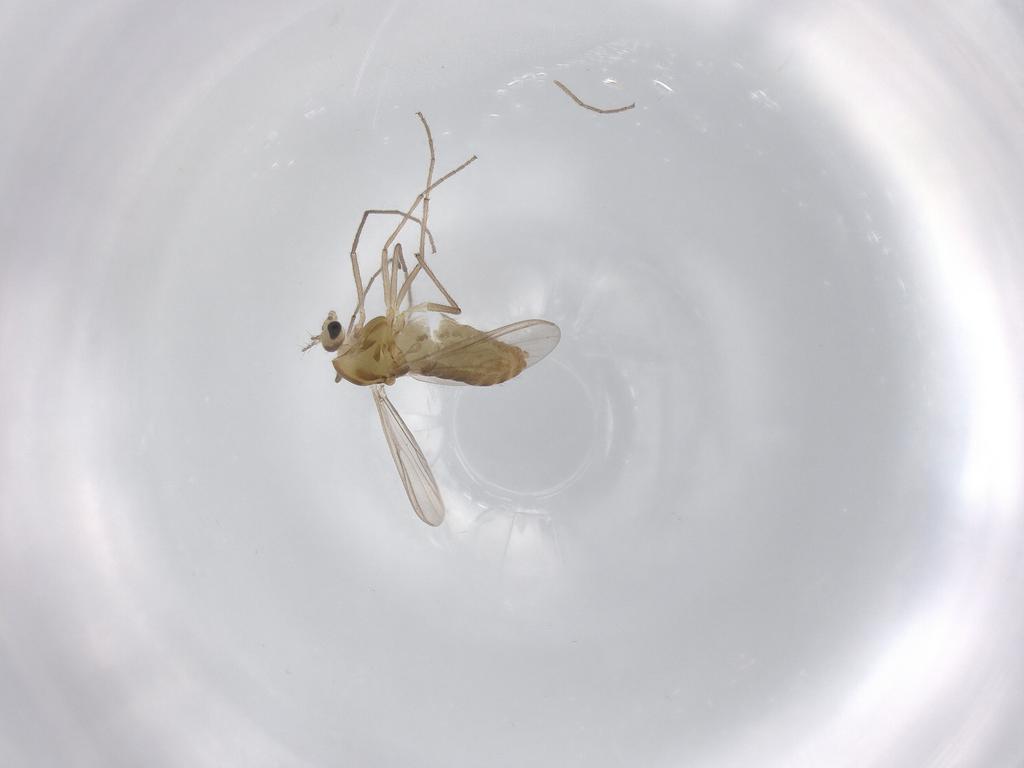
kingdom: Animalia
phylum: Arthropoda
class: Insecta
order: Diptera
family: Chironomidae
